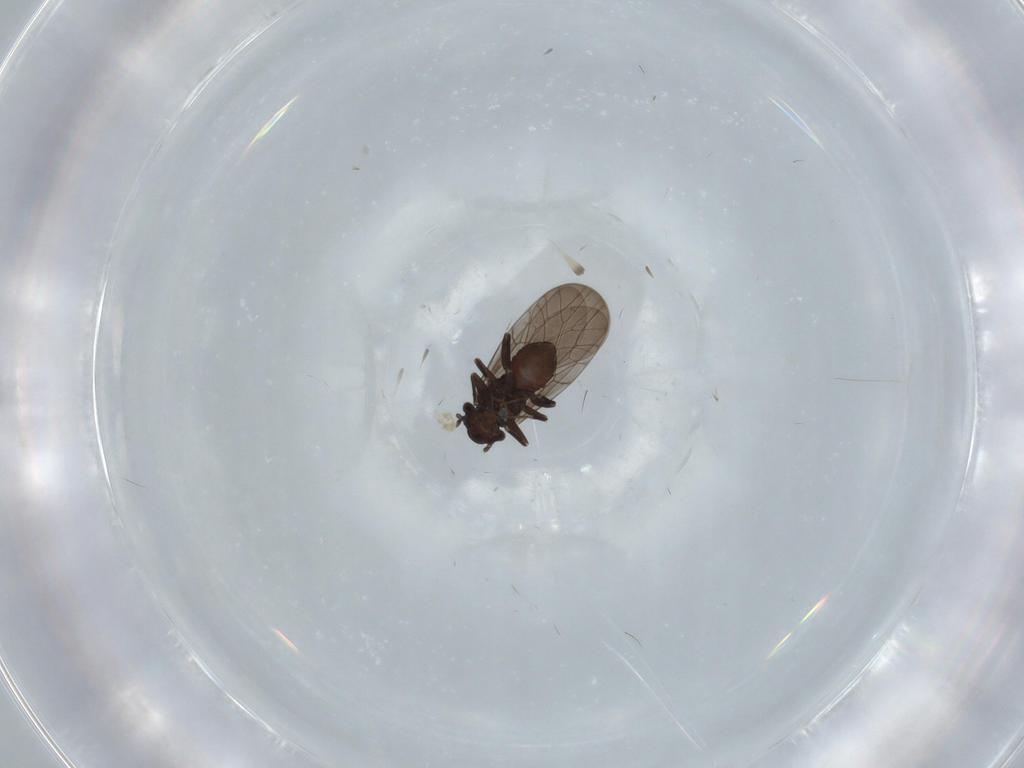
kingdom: Animalia
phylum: Arthropoda
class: Insecta
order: Psocodea
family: Lepidopsocidae
